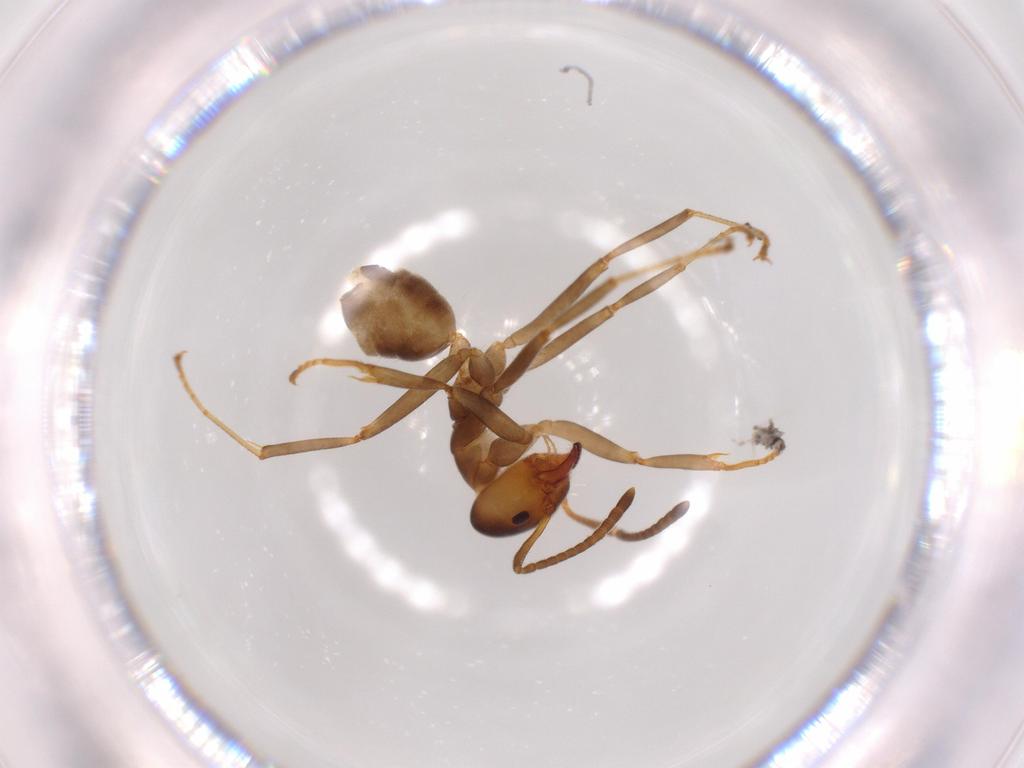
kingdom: Animalia
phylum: Arthropoda
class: Insecta
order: Hymenoptera
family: Formicidae
